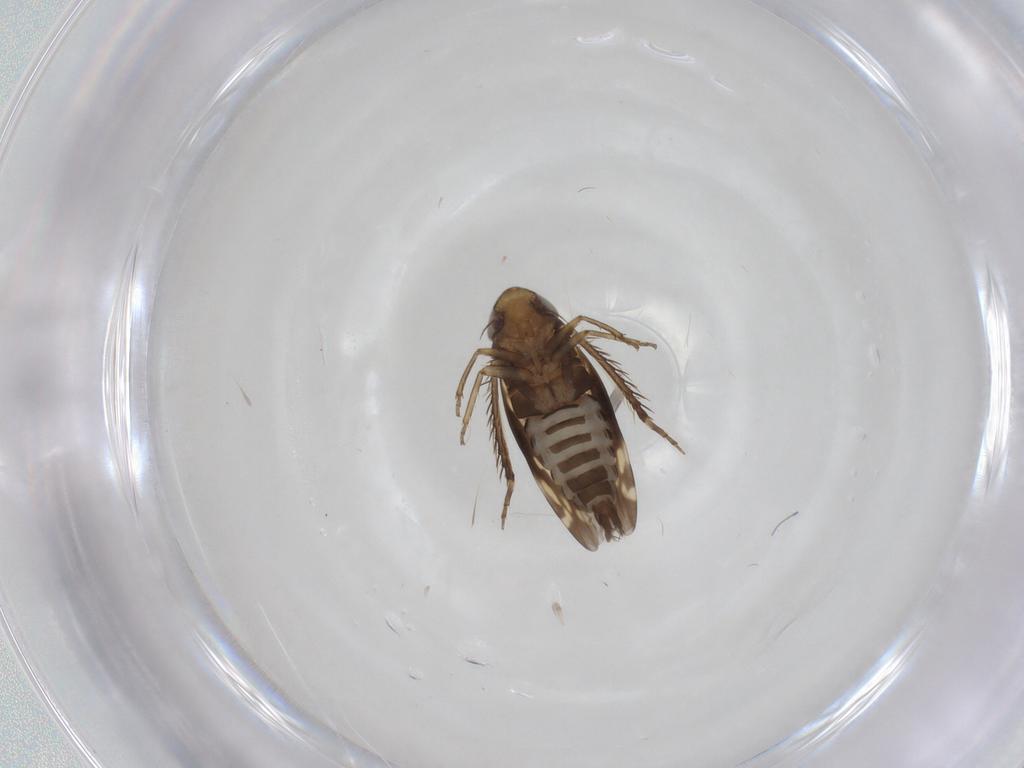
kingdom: Animalia
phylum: Arthropoda
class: Insecta
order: Hemiptera
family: Cicadellidae
